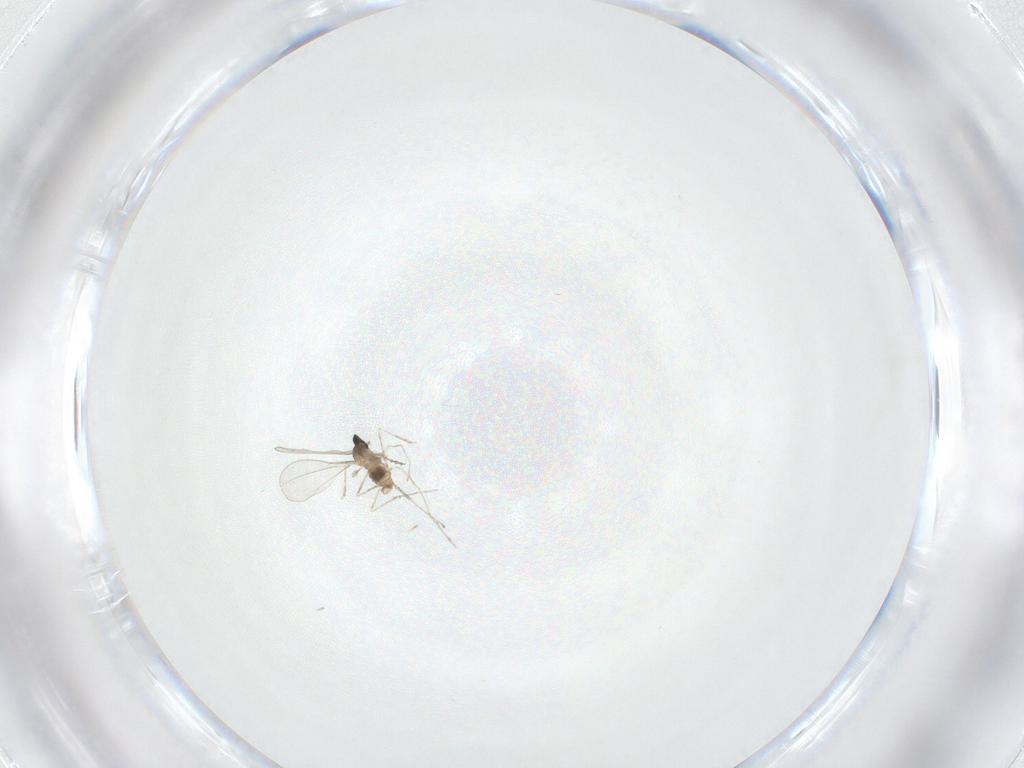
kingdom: Animalia
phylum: Arthropoda
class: Insecta
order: Diptera
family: Cecidomyiidae
